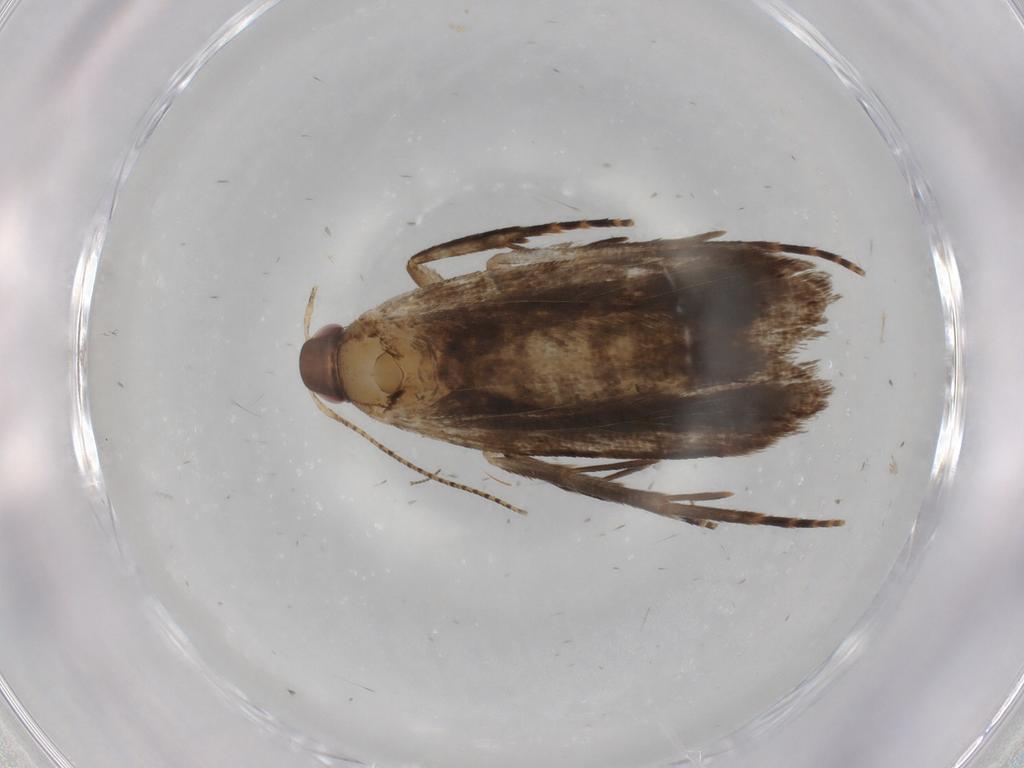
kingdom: Animalia
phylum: Arthropoda
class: Insecta
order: Lepidoptera
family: Gelechiidae
